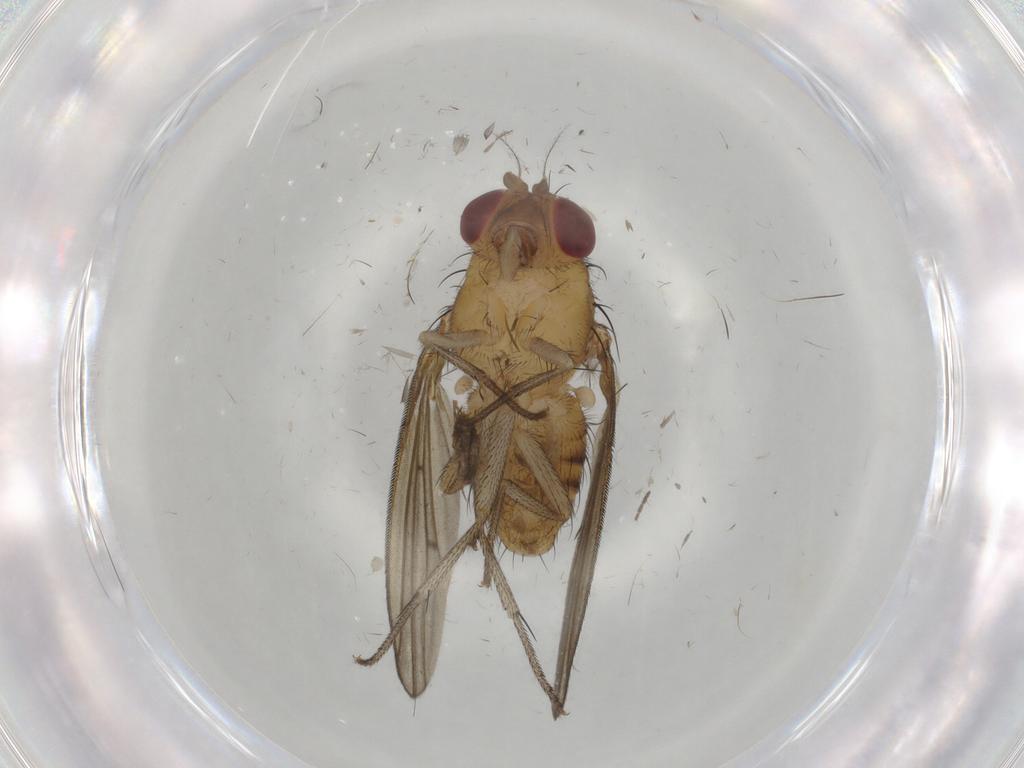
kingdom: Animalia
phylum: Arthropoda
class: Insecta
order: Diptera
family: Lauxaniidae
